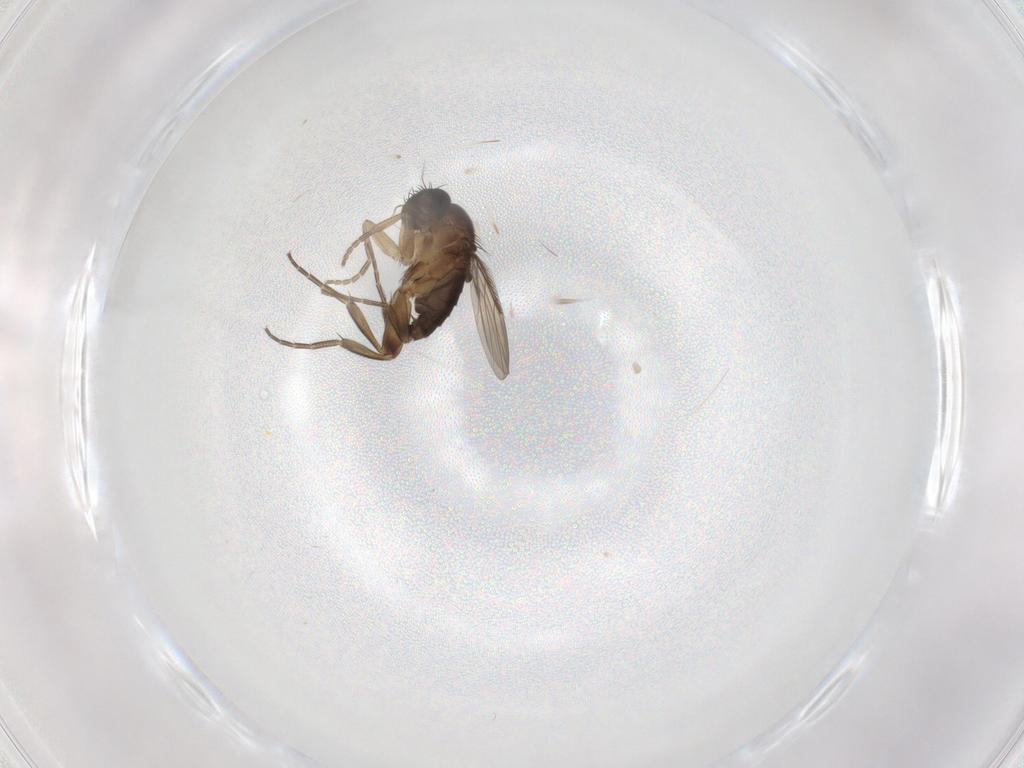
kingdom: Animalia
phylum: Arthropoda
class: Insecta
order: Diptera
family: Phoridae
